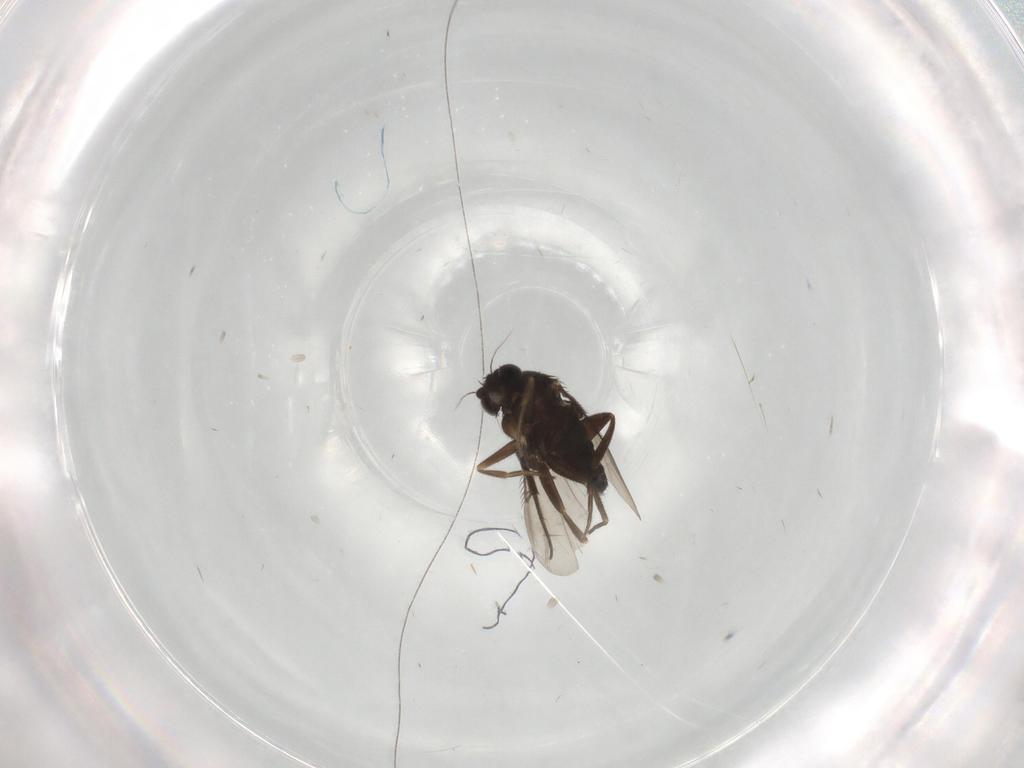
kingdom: Animalia
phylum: Arthropoda
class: Insecta
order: Diptera
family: Phoridae
